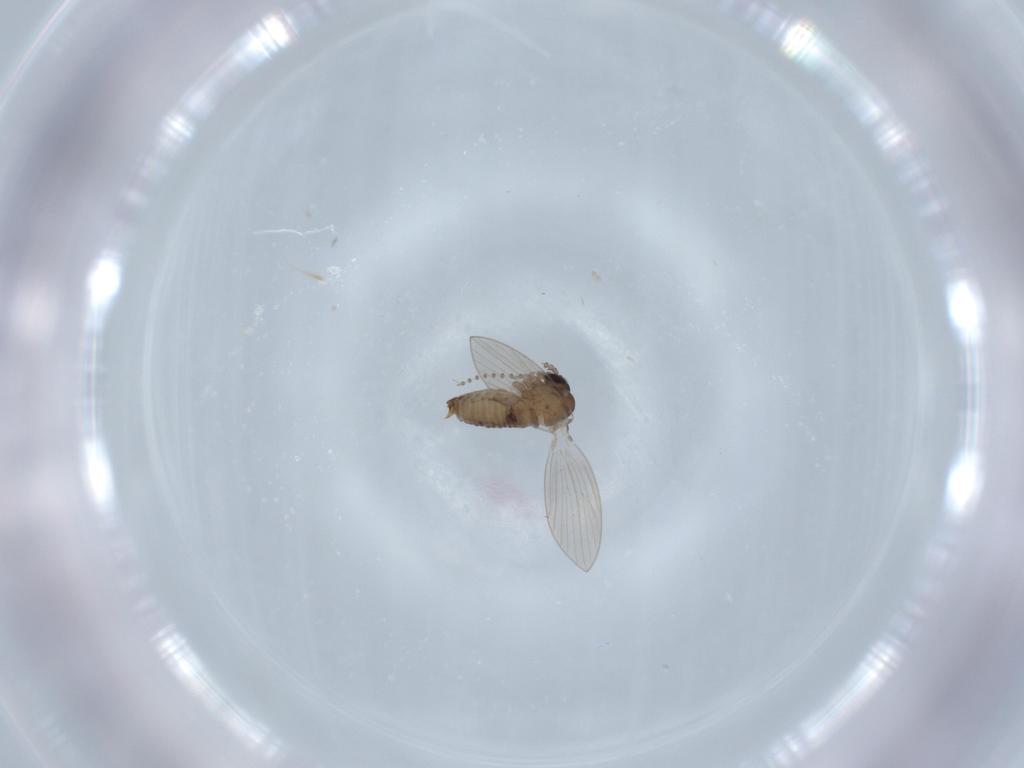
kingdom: Animalia
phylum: Arthropoda
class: Insecta
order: Diptera
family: Psychodidae
